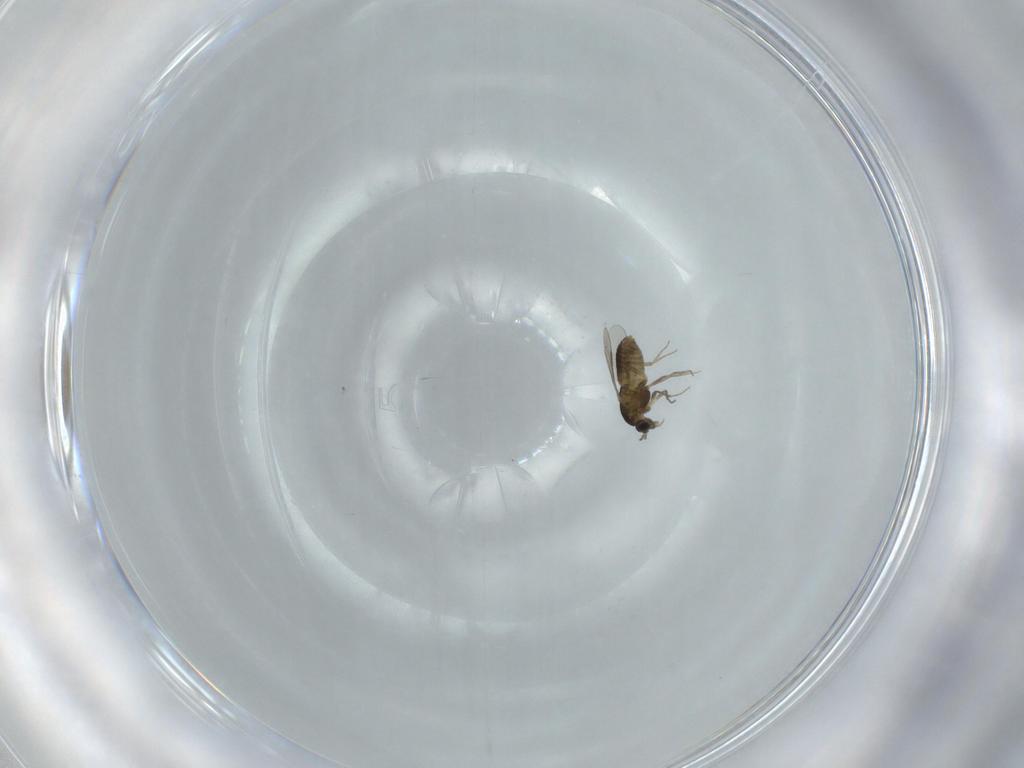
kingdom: Animalia
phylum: Arthropoda
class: Insecta
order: Diptera
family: Chironomidae
